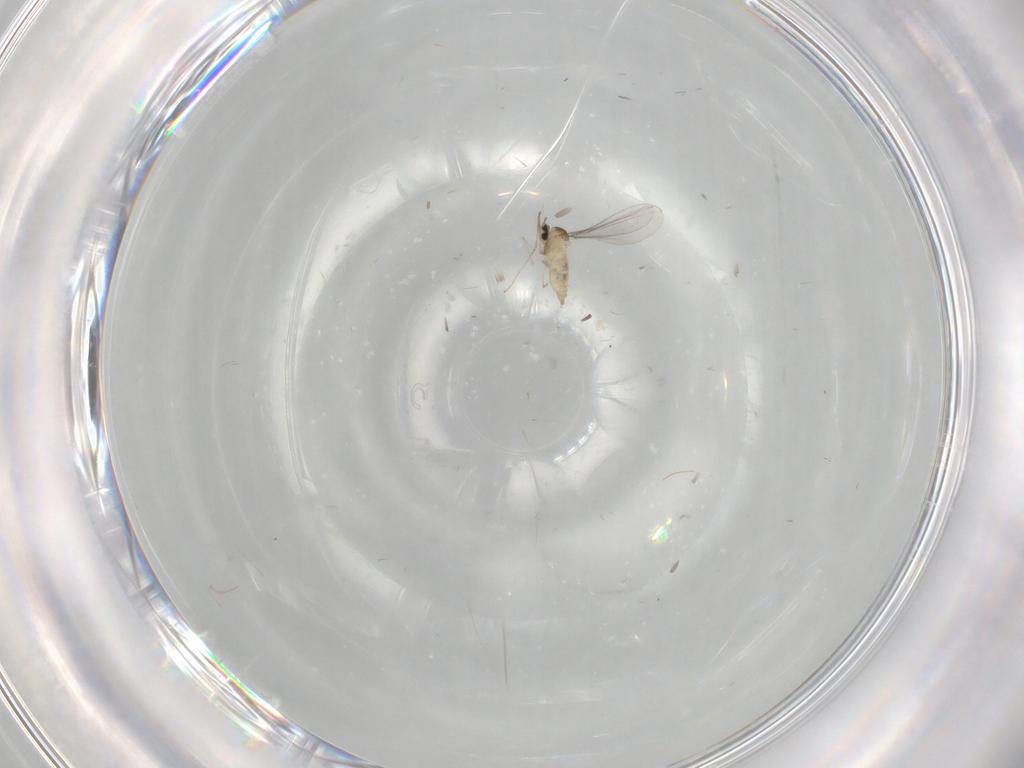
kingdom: Animalia
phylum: Arthropoda
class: Insecta
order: Diptera
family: Cecidomyiidae
